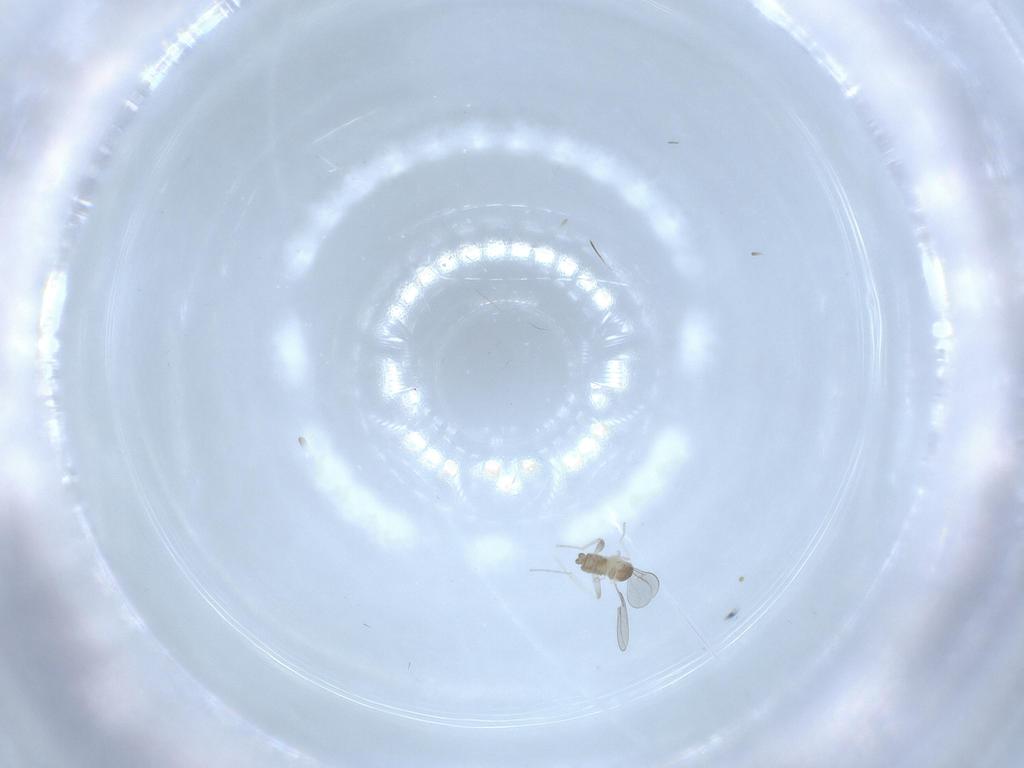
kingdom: Animalia
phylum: Arthropoda
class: Insecta
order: Diptera
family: Cecidomyiidae
